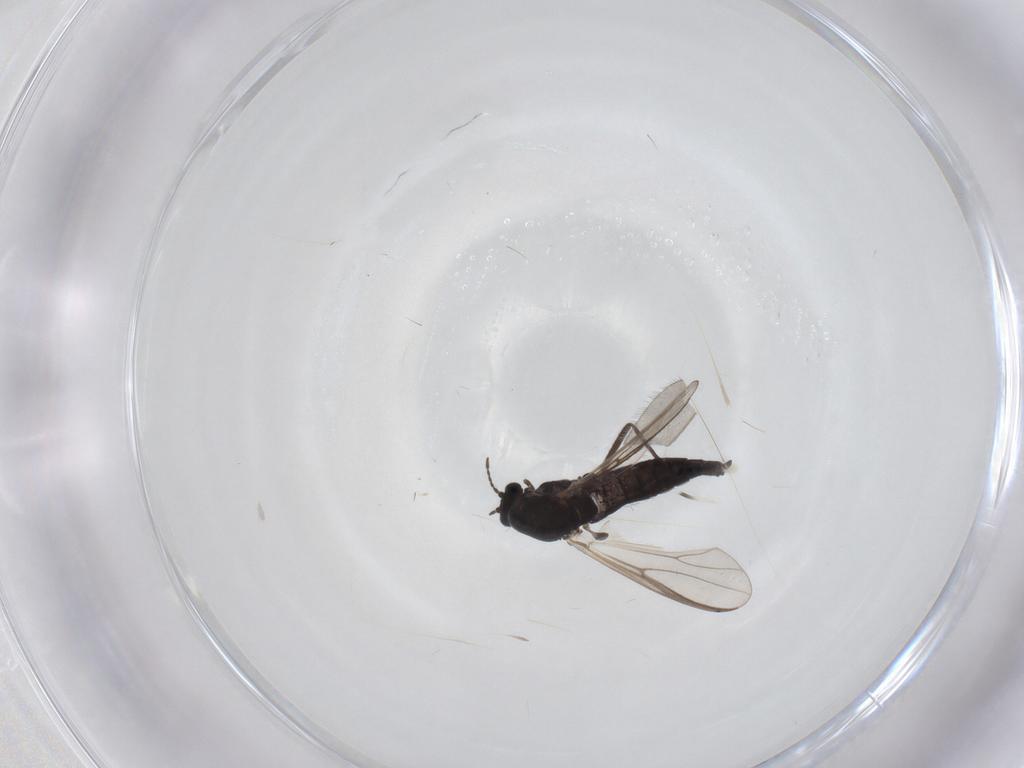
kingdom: Animalia
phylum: Arthropoda
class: Insecta
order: Diptera
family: Chironomidae
